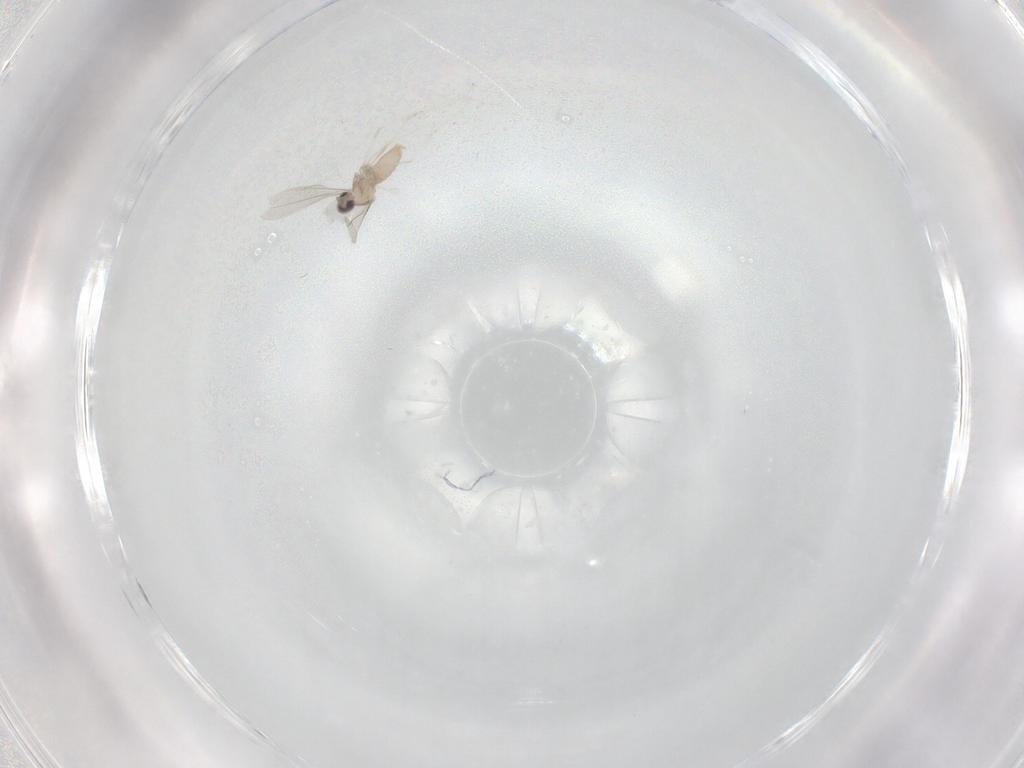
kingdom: Animalia
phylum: Arthropoda
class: Insecta
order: Diptera
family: Cecidomyiidae
